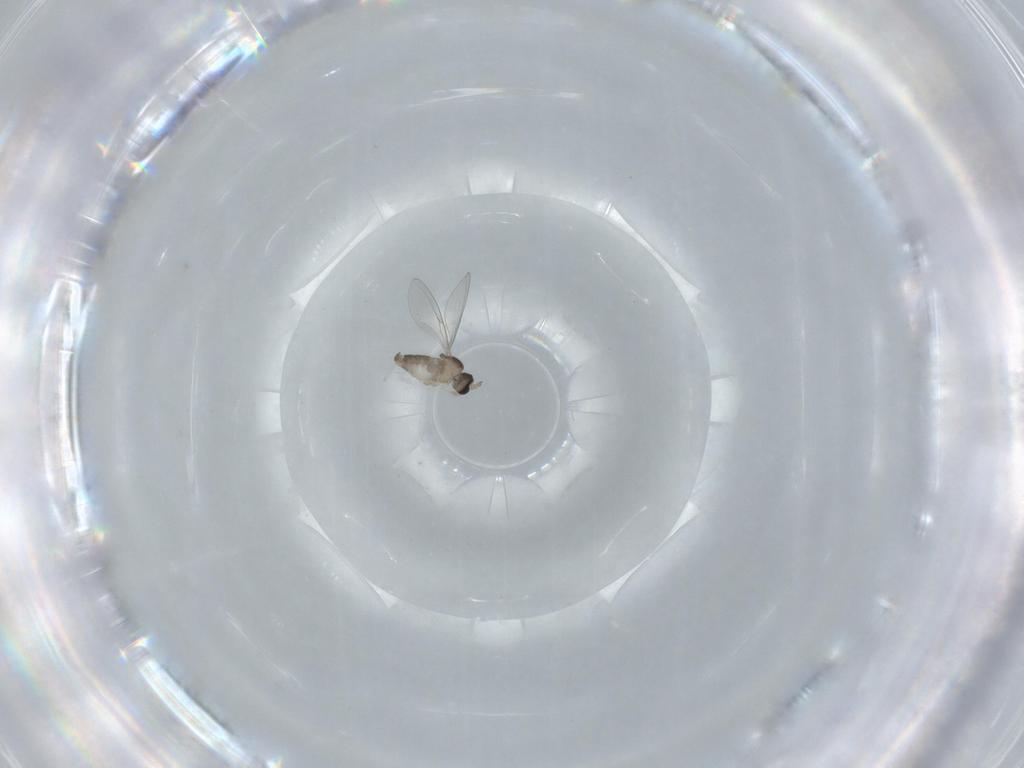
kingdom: Animalia
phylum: Arthropoda
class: Insecta
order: Diptera
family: Cecidomyiidae
